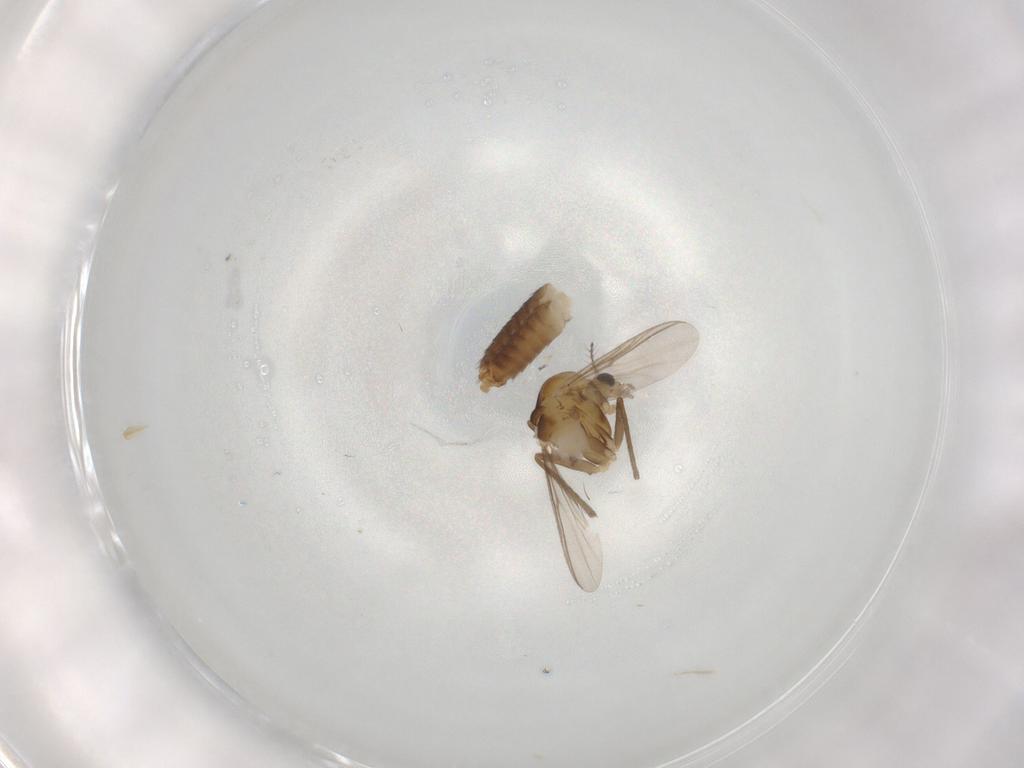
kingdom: Animalia
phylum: Arthropoda
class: Insecta
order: Diptera
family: Chironomidae
